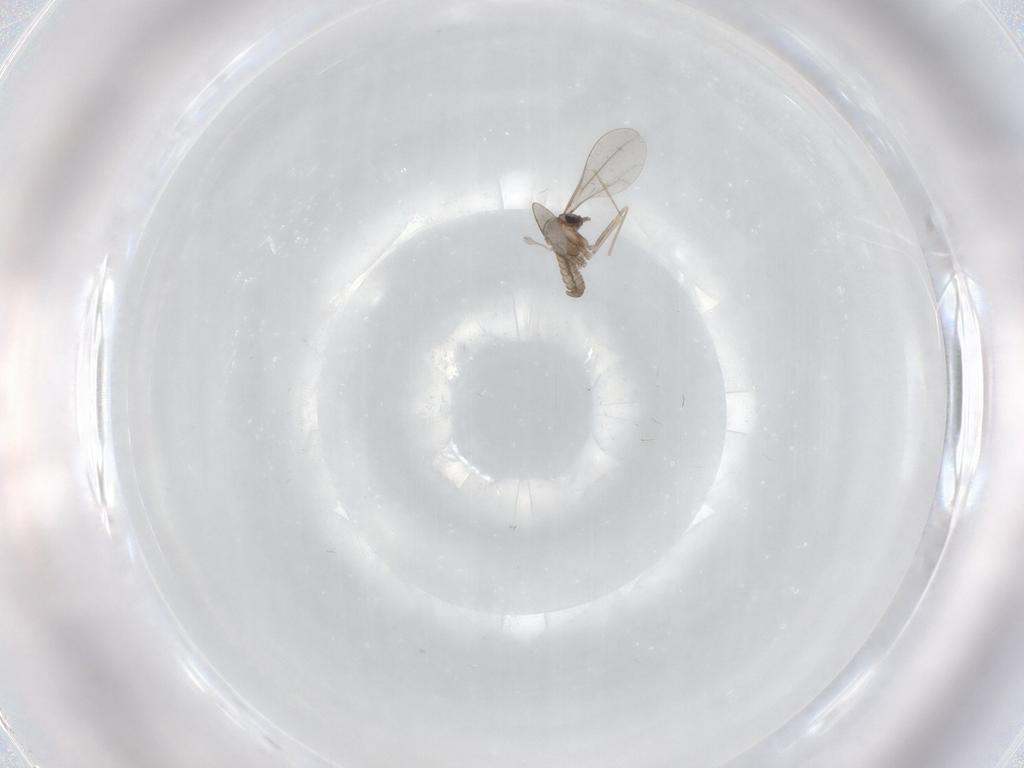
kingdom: Animalia
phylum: Arthropoda
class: Insecta
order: Diptera
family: Cecidomyiidae
